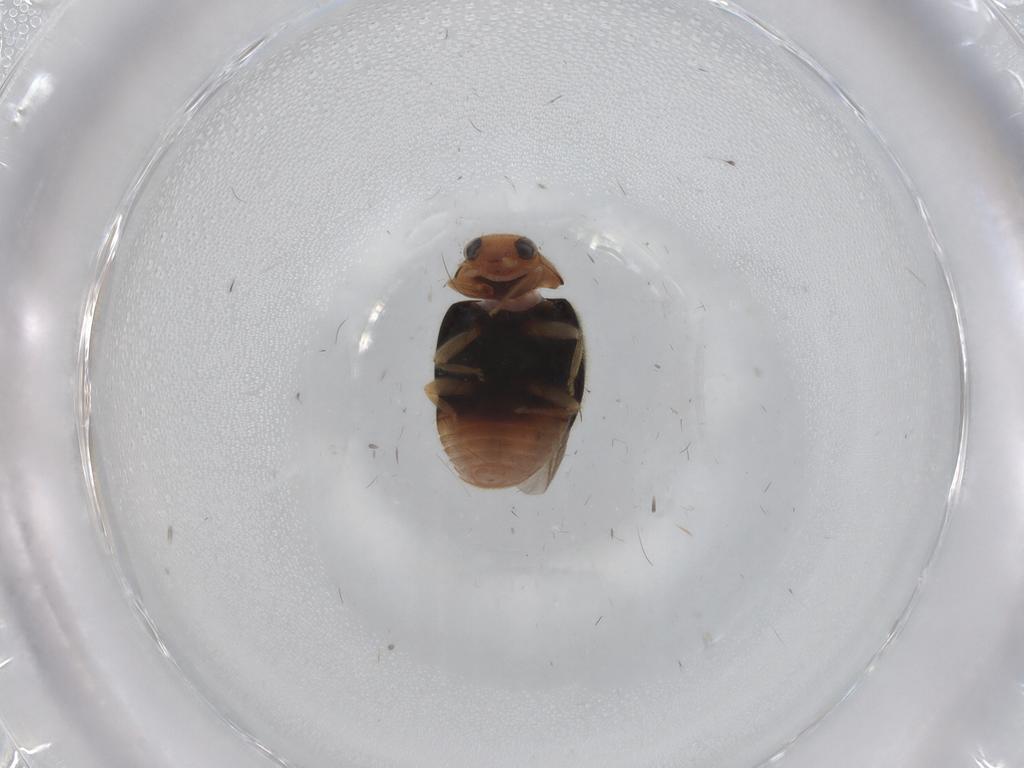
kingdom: Animalia
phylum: Arthropoda
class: Insecta
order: Coleoptera
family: Coccinellidae
